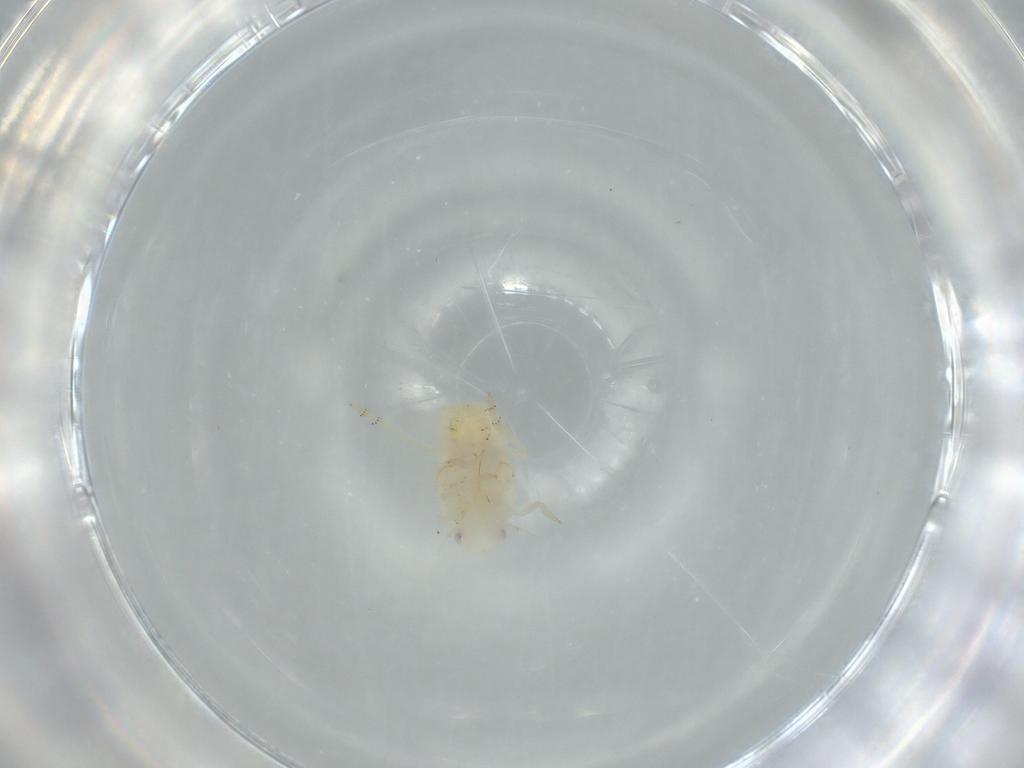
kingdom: Animalia
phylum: Arthropoda
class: Insecta
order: Hemiptera
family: Flatidae
